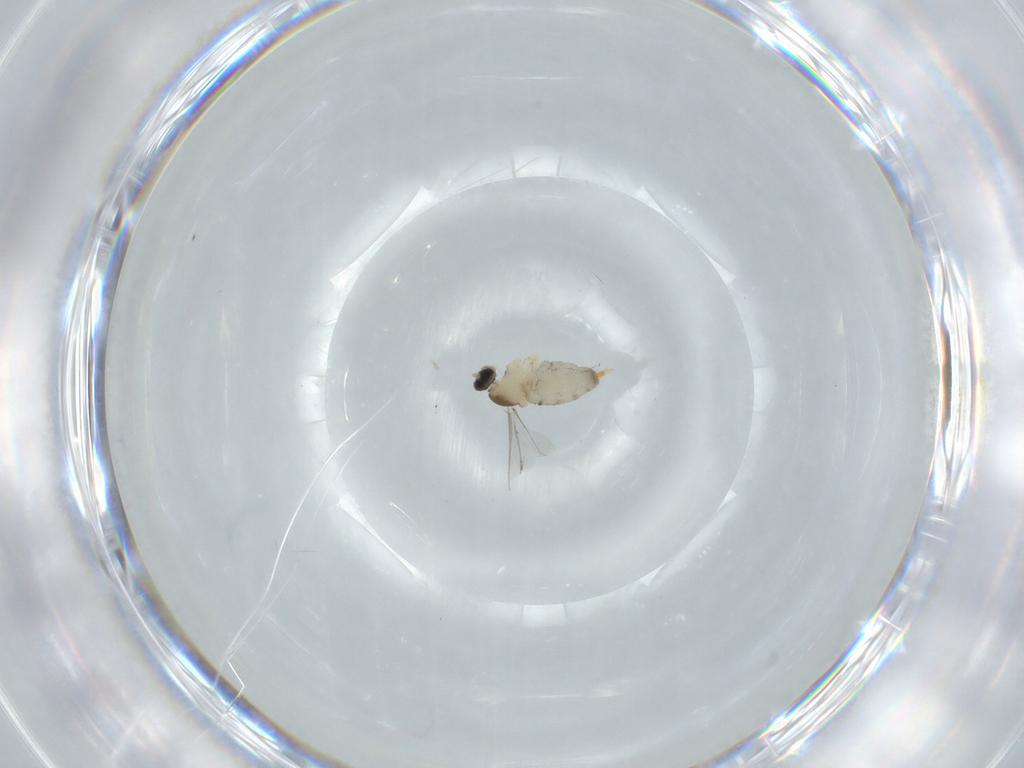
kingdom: Animalia
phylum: Arthropoda
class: Insecta
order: Diptera
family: Cecidomyiidae
